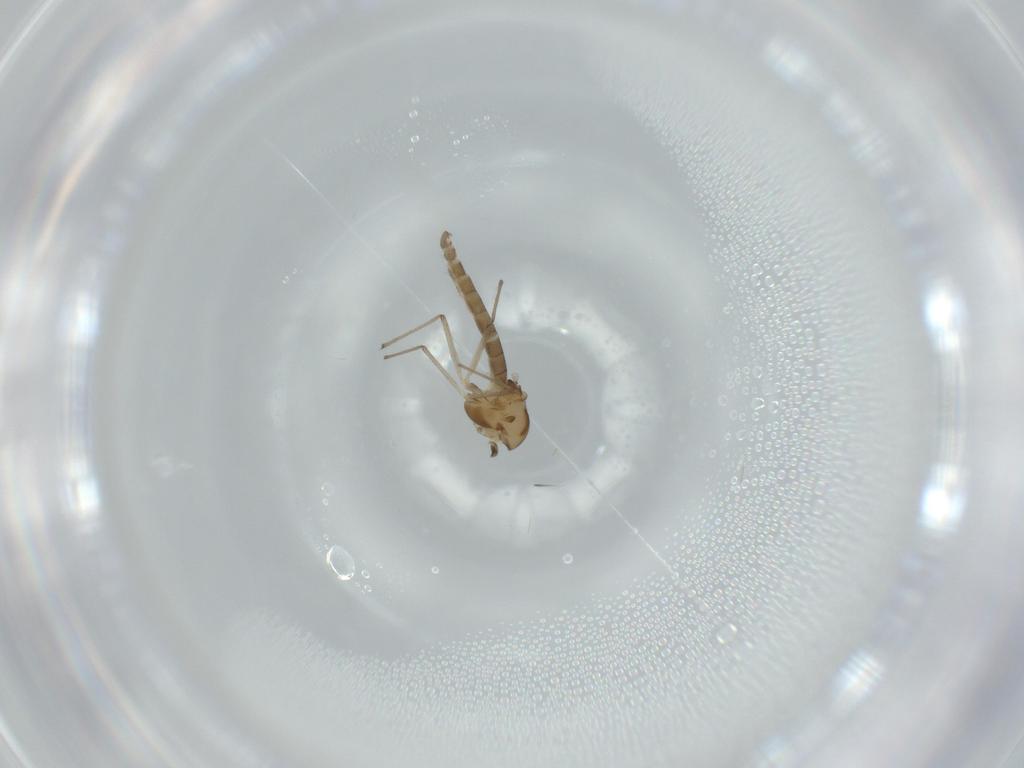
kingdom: Animalia
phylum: Arthropoda
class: Insecta
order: Diptera
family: Chironomidae
